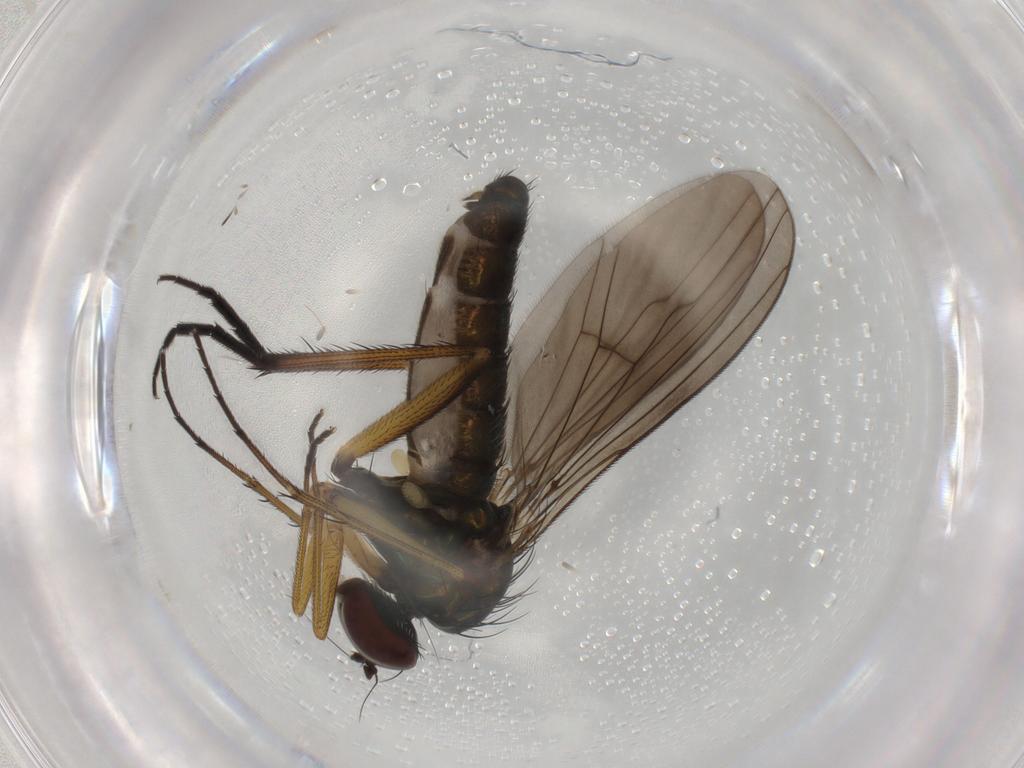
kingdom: Animalia
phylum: Arthropoda
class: Insecta
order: Diptera
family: Dolichopodidae
